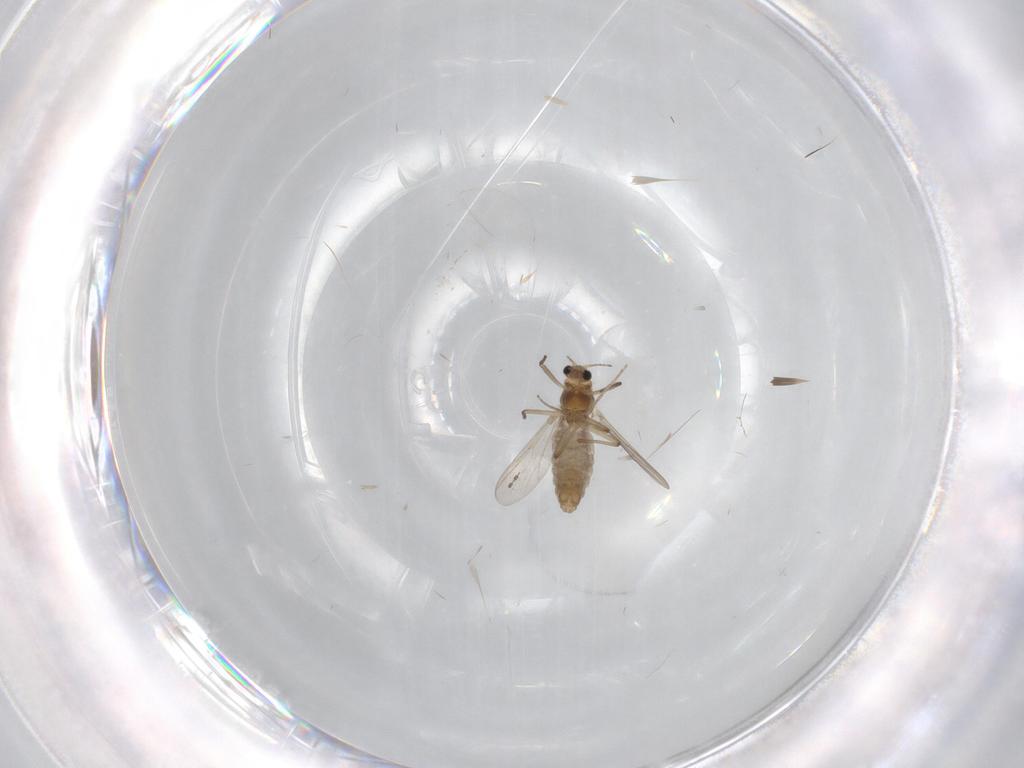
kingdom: Animalia
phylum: Arthropoda
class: Insecta
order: Diptera
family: Chironomidae
